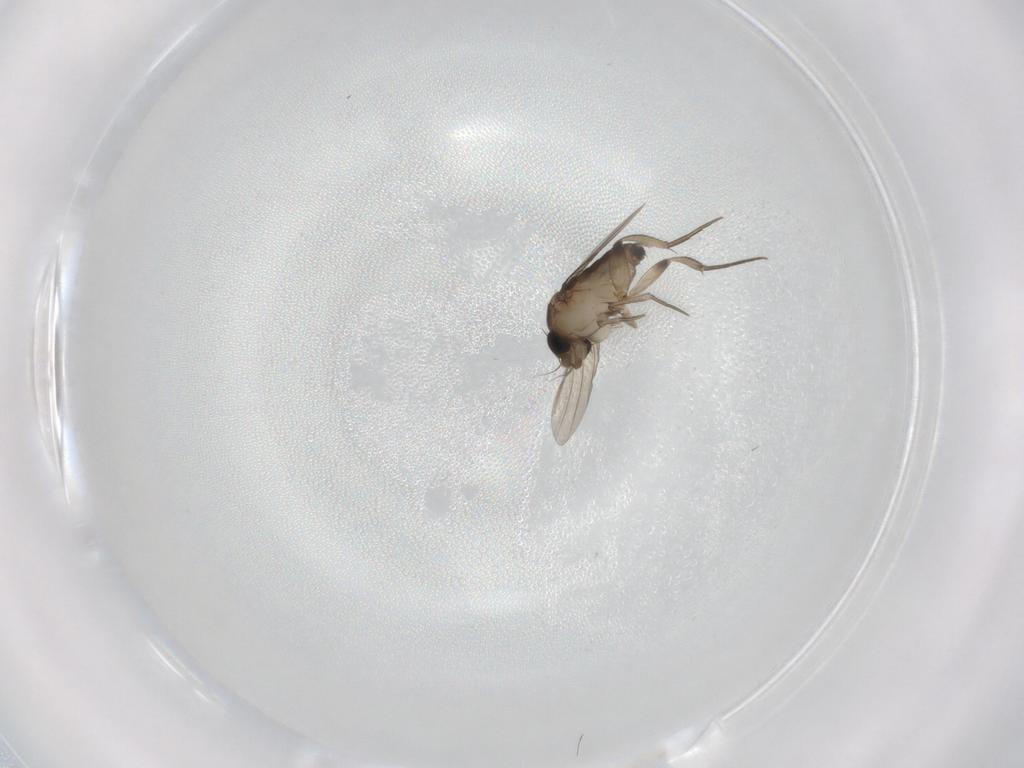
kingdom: Animalia
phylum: Arthropoda
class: Insecta
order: Diptera
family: Phoridae
